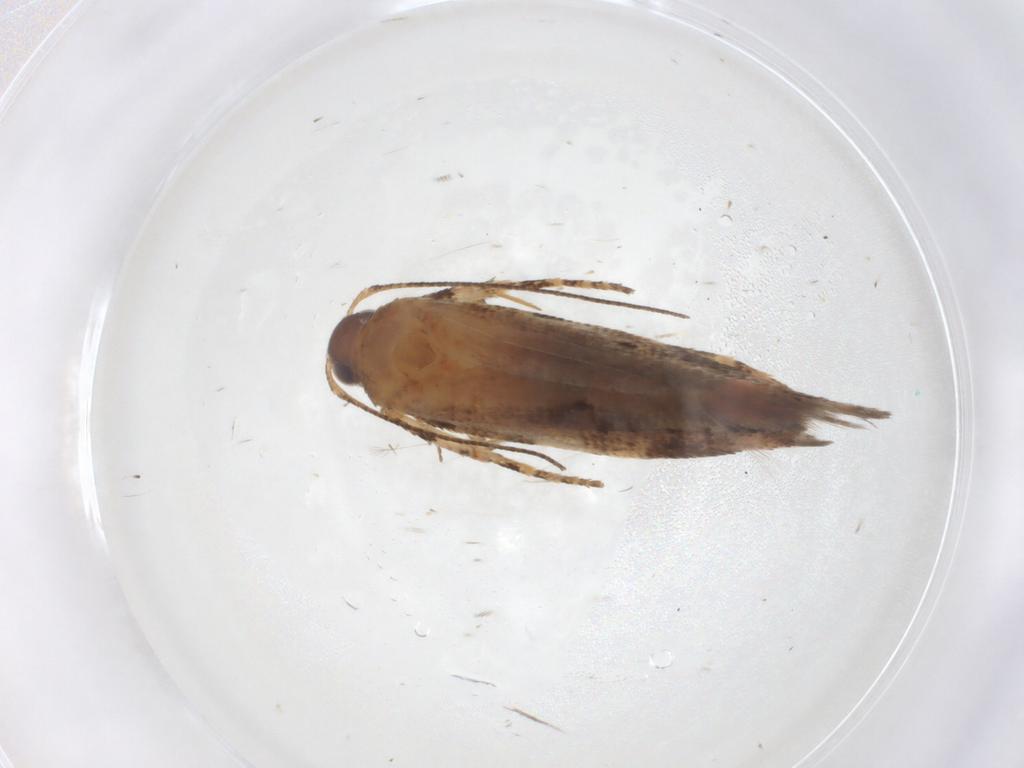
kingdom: Animalia
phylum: Arthropoda
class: Insecta
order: Lepidoptera
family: Gelechiidae
